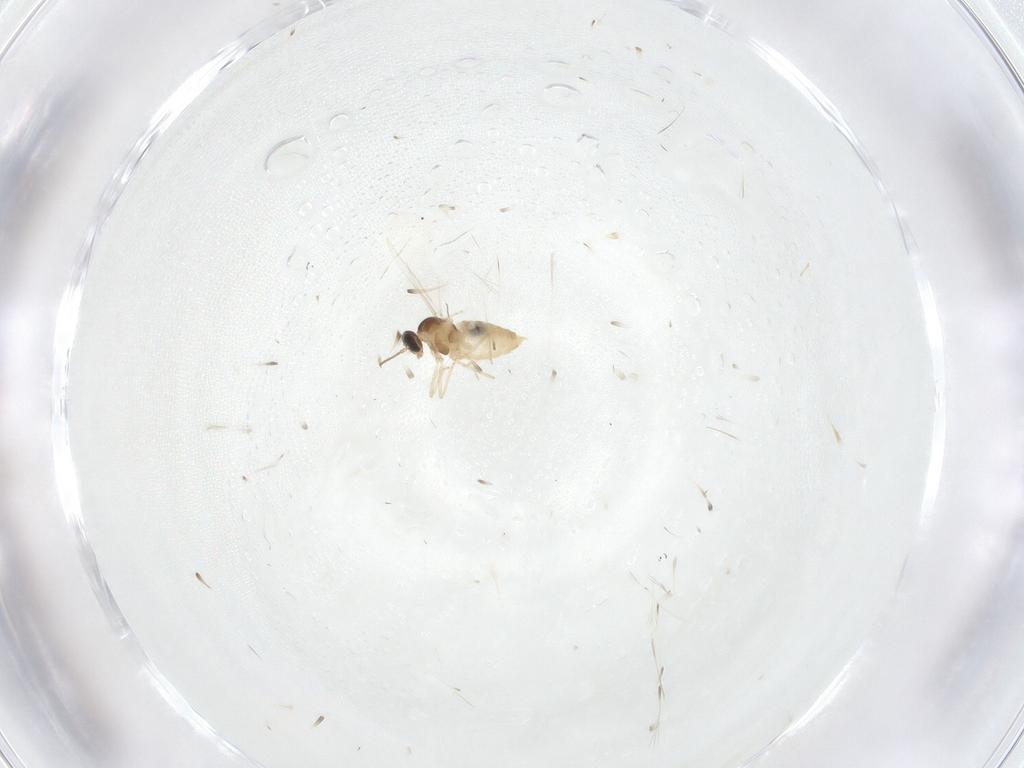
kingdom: Animalia
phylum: Arthropoda
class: Insecta
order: Diptera
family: Cecidomyiidae
